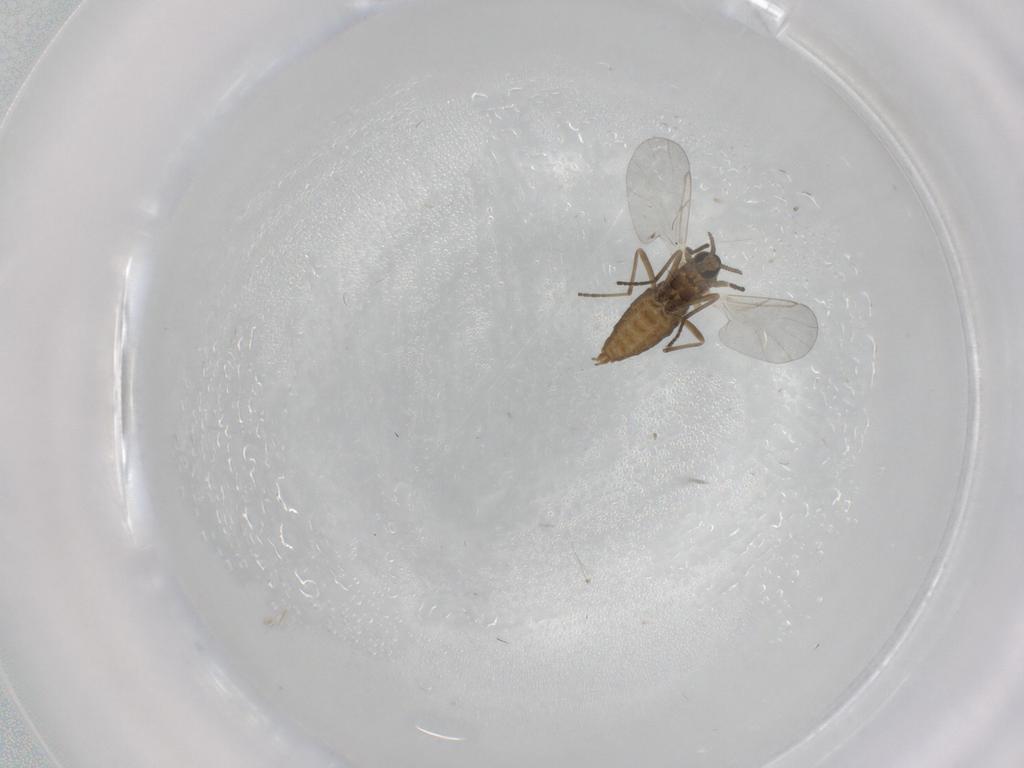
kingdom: Animalia
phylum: Arthropoda
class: Insecta
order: Diptera
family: Cecidomyiidae
